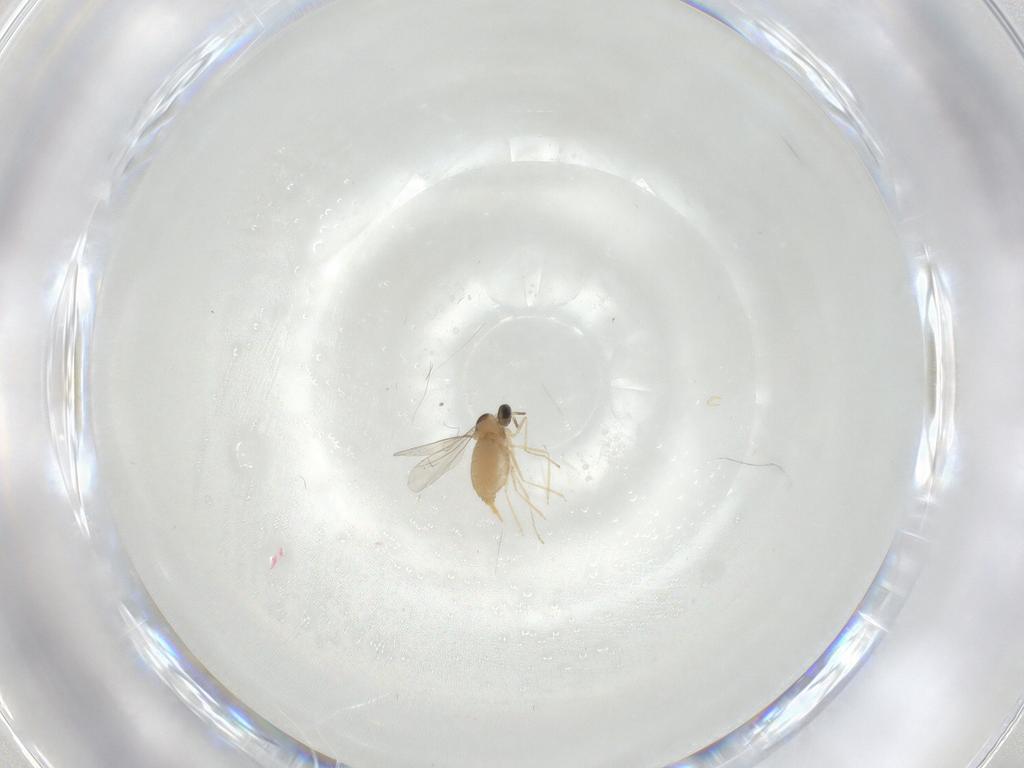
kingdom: Animalia
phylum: Arthropoda
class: Insecta
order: Diptera
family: Cecidomyiidae
